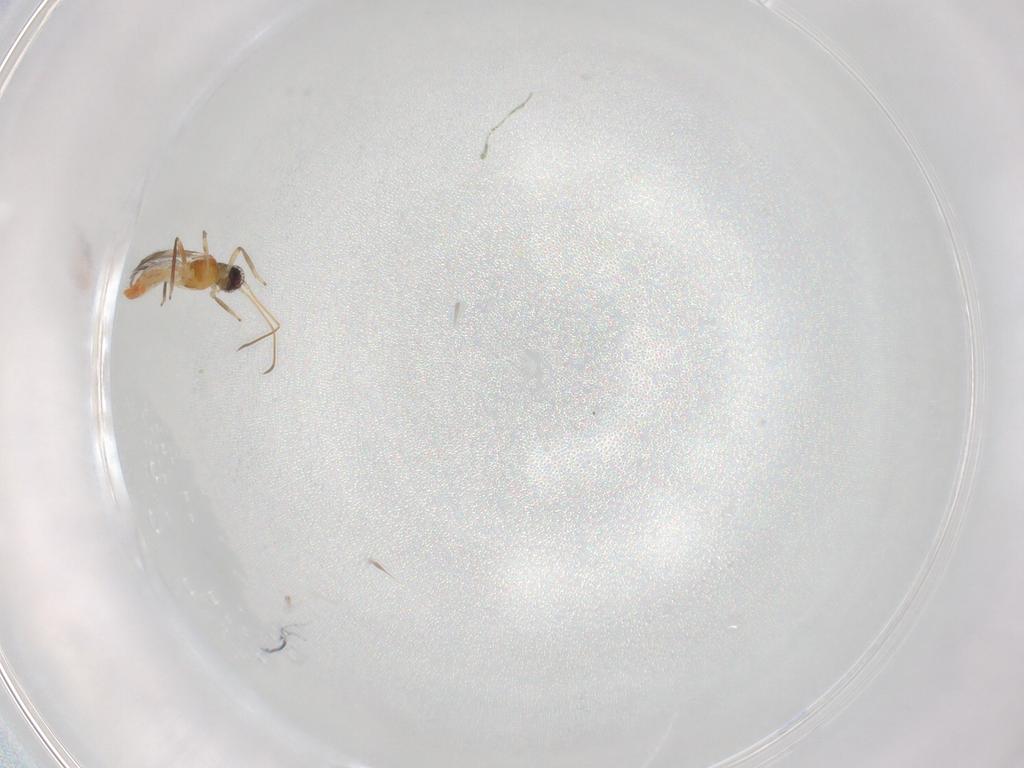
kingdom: Animalia
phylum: Arthropoda
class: Insecta
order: Thysanoptera
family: Aeolothripidae
